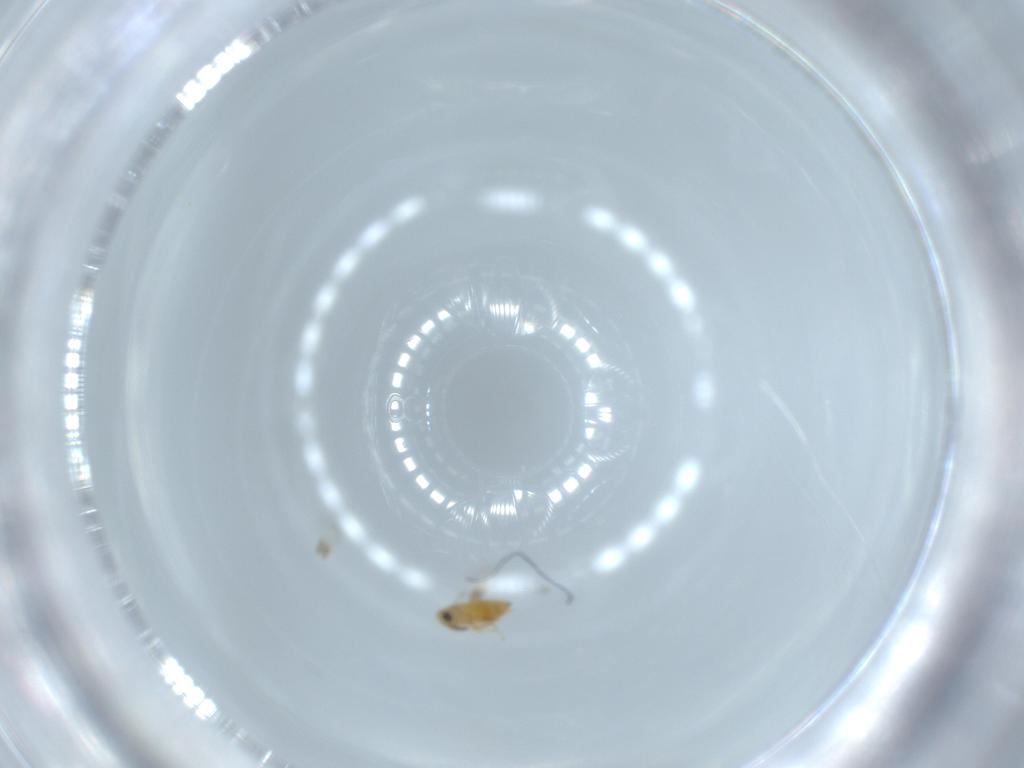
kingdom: Animalia
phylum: Arthropoda
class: Insecta
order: Hymenoptera
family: Scelionidae
